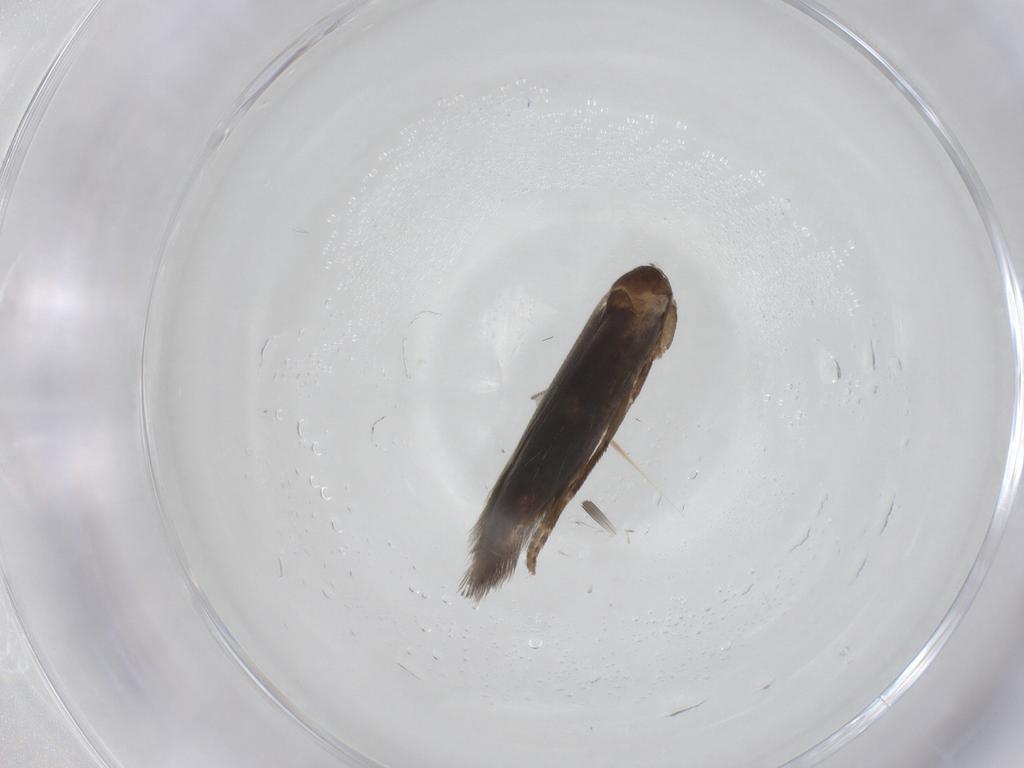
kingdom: Animalia
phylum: Arthropoda
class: Insecta
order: Lepidoptera
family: Elachistidae
